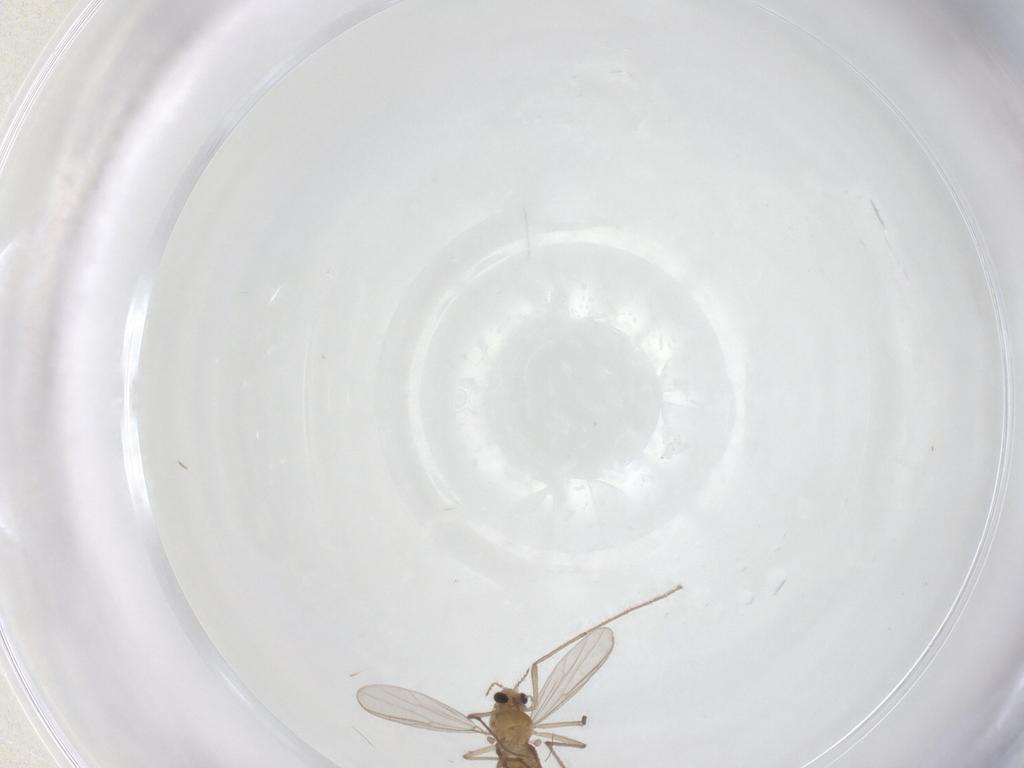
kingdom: Animalia
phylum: Arthropoda
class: Insecta
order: Diptera
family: Chironomidae
